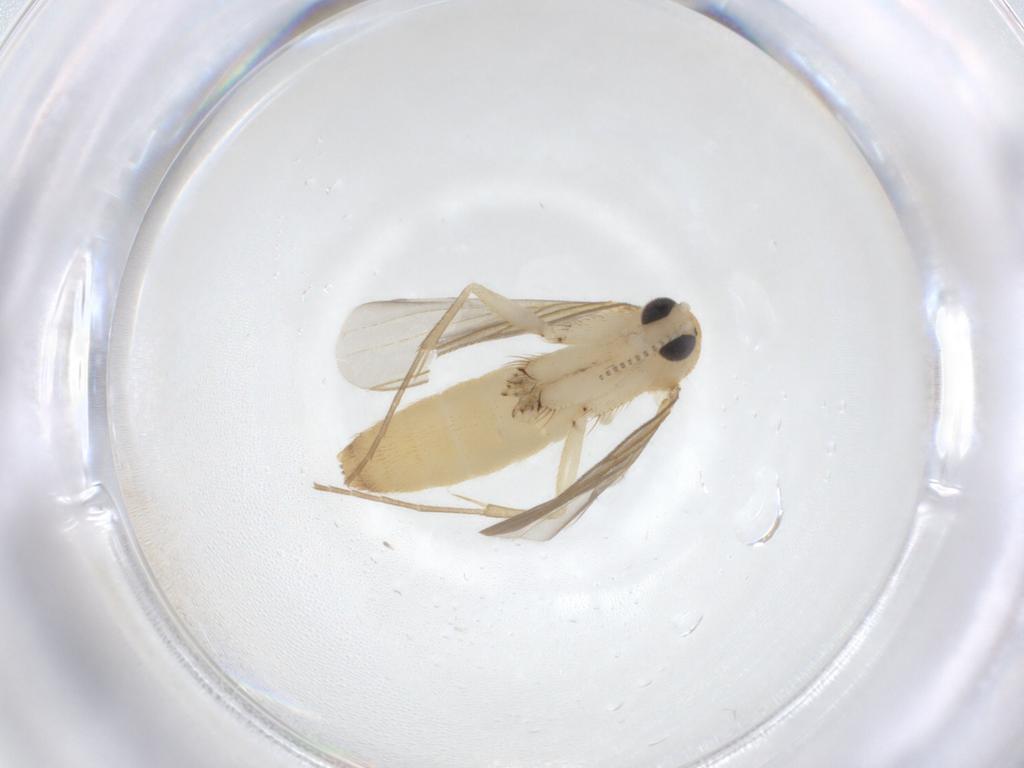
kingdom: Animalia
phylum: Arthropoda
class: Insecta
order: Diptera
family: Mycetophilidae
